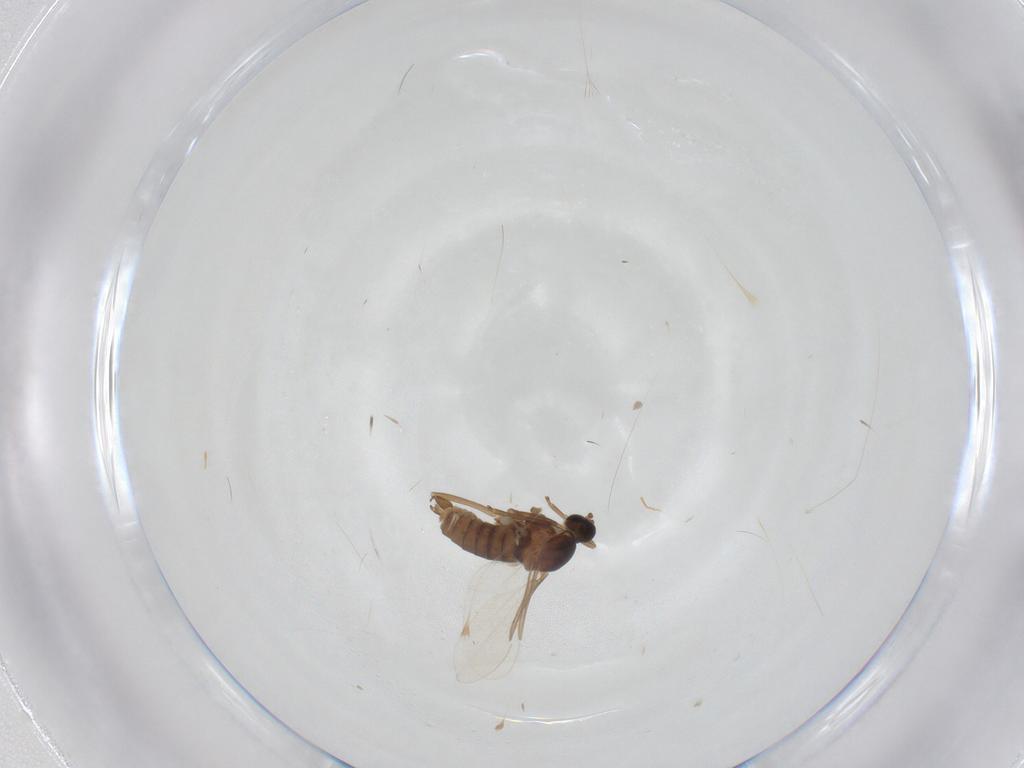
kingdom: Animalia
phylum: Arthropoda
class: Insecta
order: Diptera
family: Cecidomyiidae
